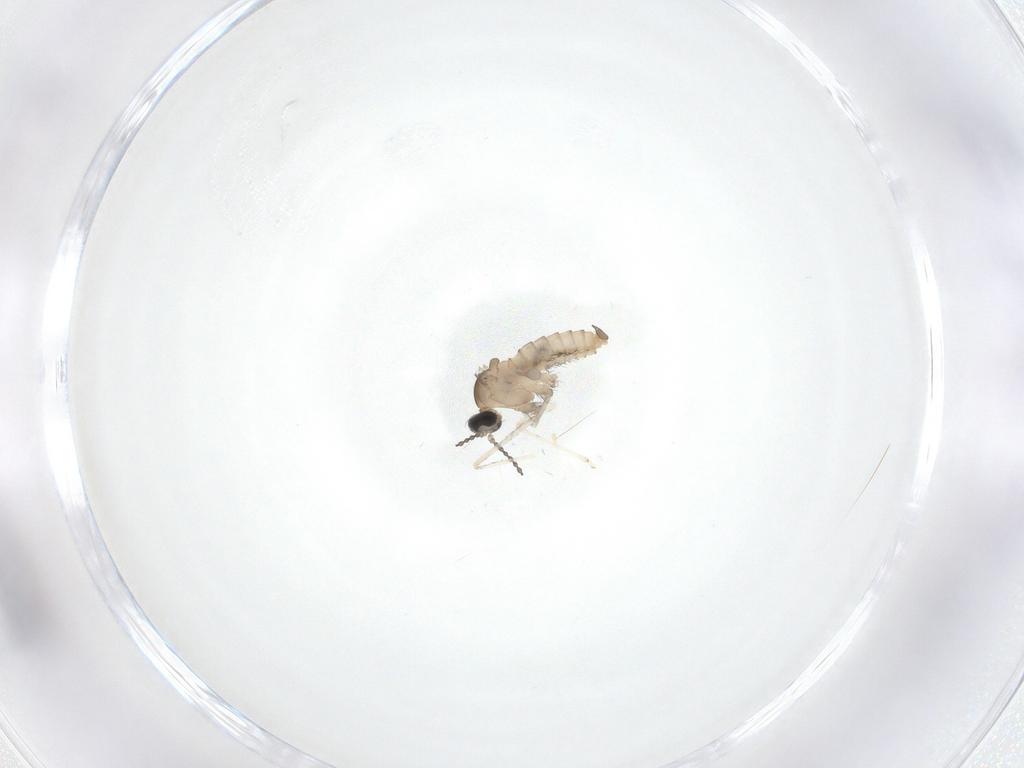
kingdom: Animalia
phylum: Arthropoda
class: Insecta
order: Diptera
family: Cecidomyiidae
